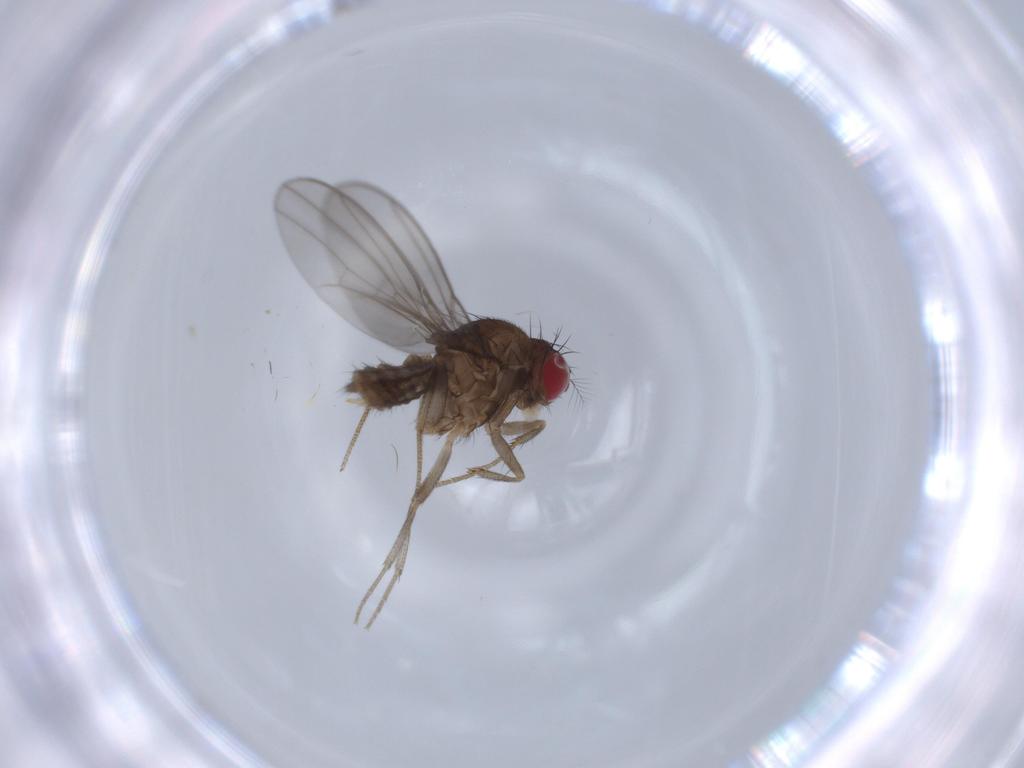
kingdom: Animalia
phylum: Arthropoda
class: Insecta
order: Diptera
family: Drosophilidae
